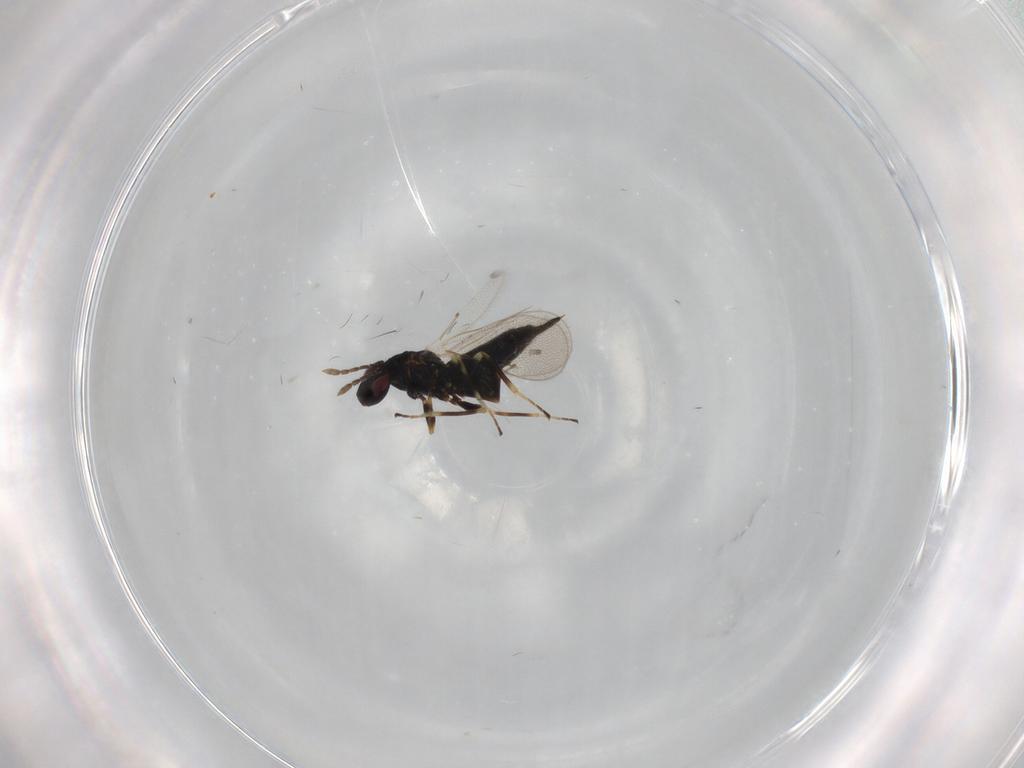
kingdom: Animalia
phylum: Arthropoda
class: Insecta
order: Hymenoptera
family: Eulophidae
